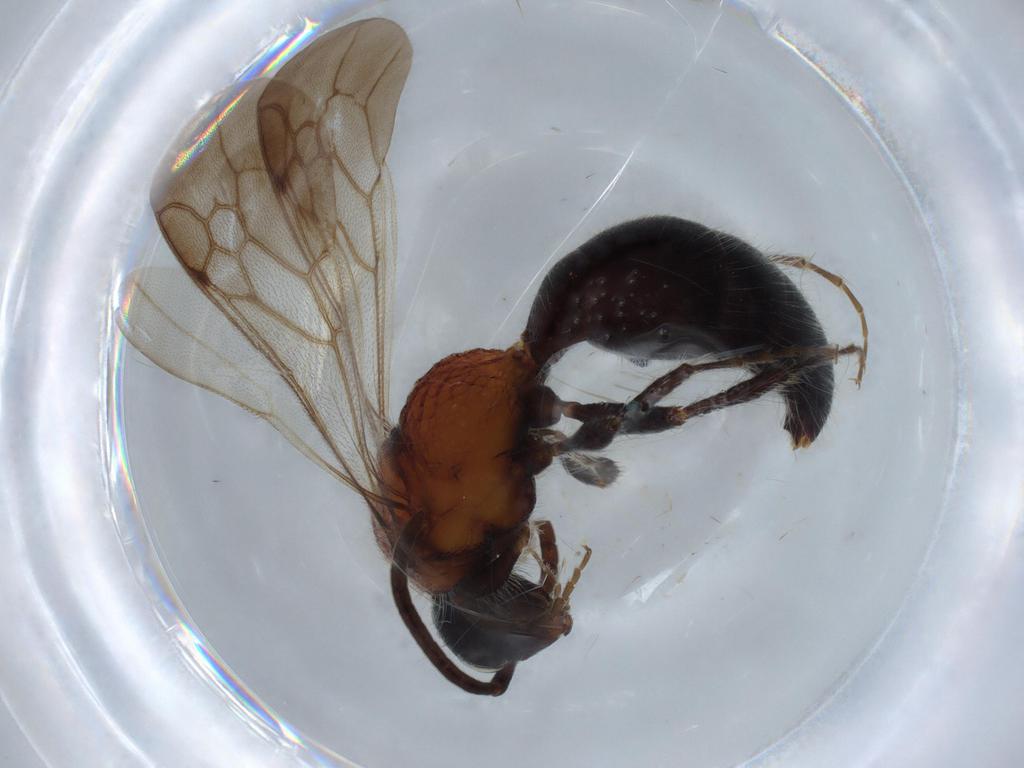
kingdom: Animalia
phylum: Arthropoda
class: Insecta
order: Hymenoptera
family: Mutillidae
